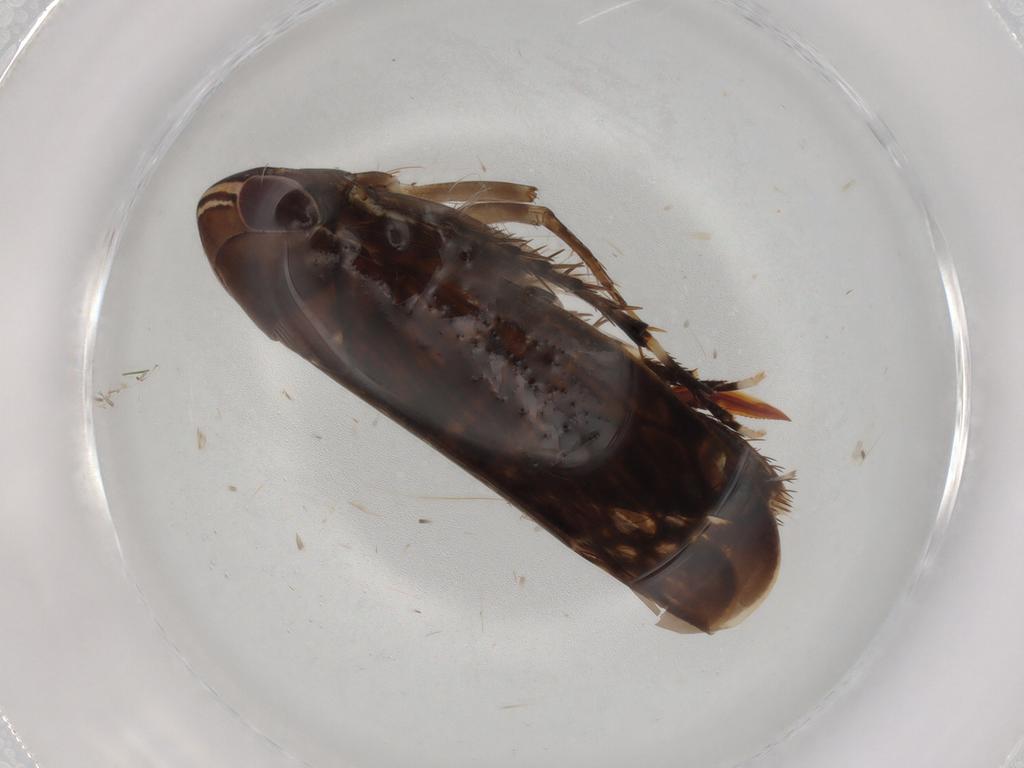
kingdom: Animalia
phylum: Arthropoda
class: Insecta
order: Hemiptera
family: Cicadellidae
